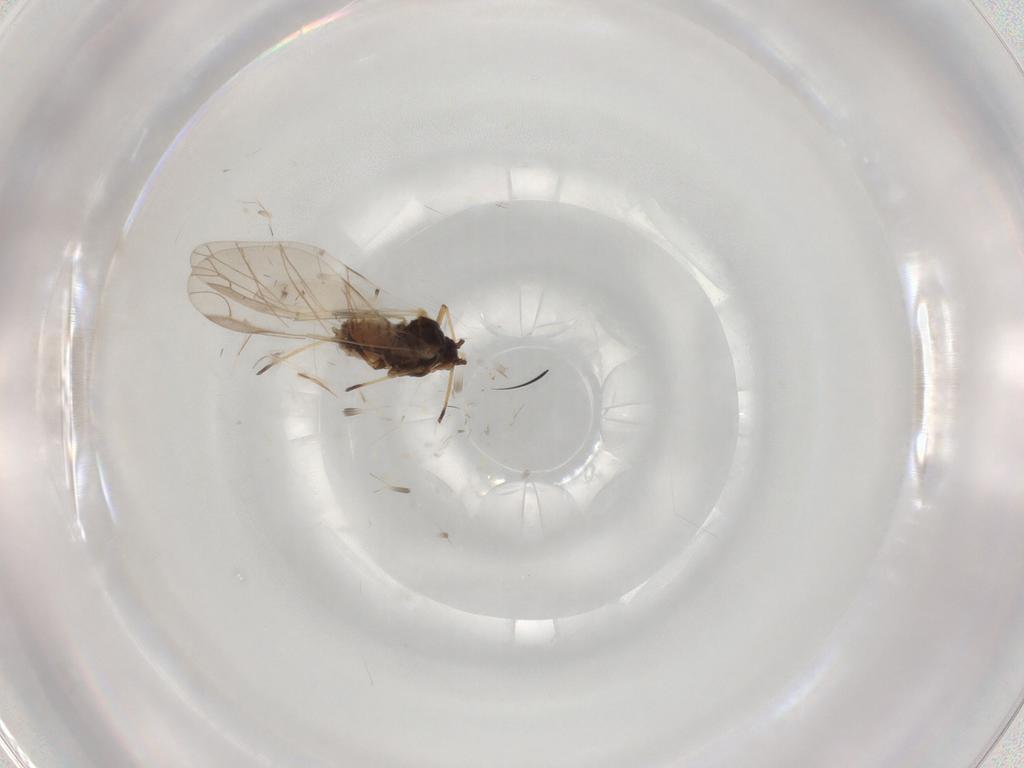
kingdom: Animalia
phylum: Arthropoda
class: Insecta
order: Hemiptera
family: Aphididae
